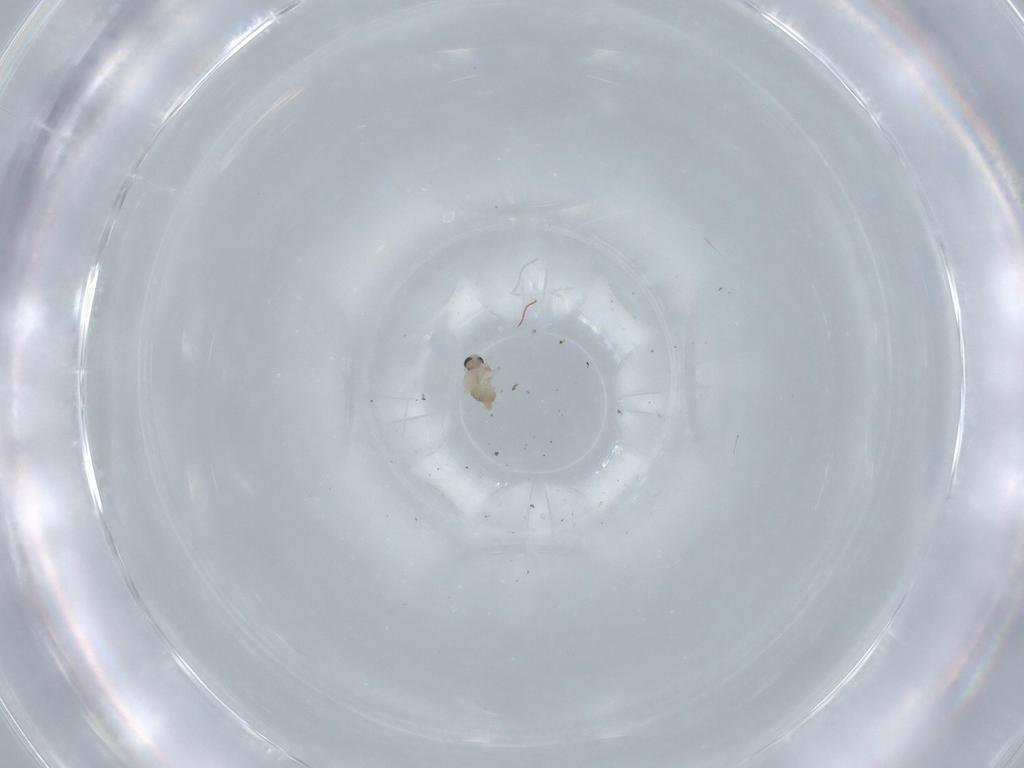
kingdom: Animalia
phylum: Arthropoda
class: Insecta
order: Diptera
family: Cecidomyiidae
